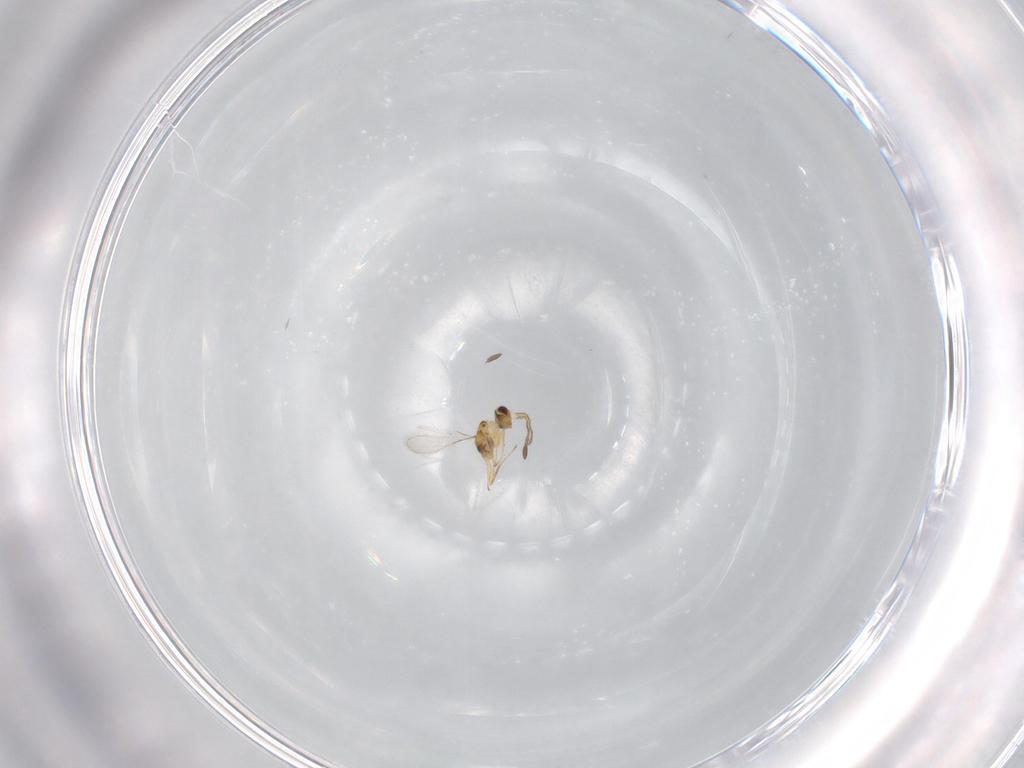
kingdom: Animalia
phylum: Arthropoda
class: Insecta
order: Hymenoptera
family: Mymaridae
